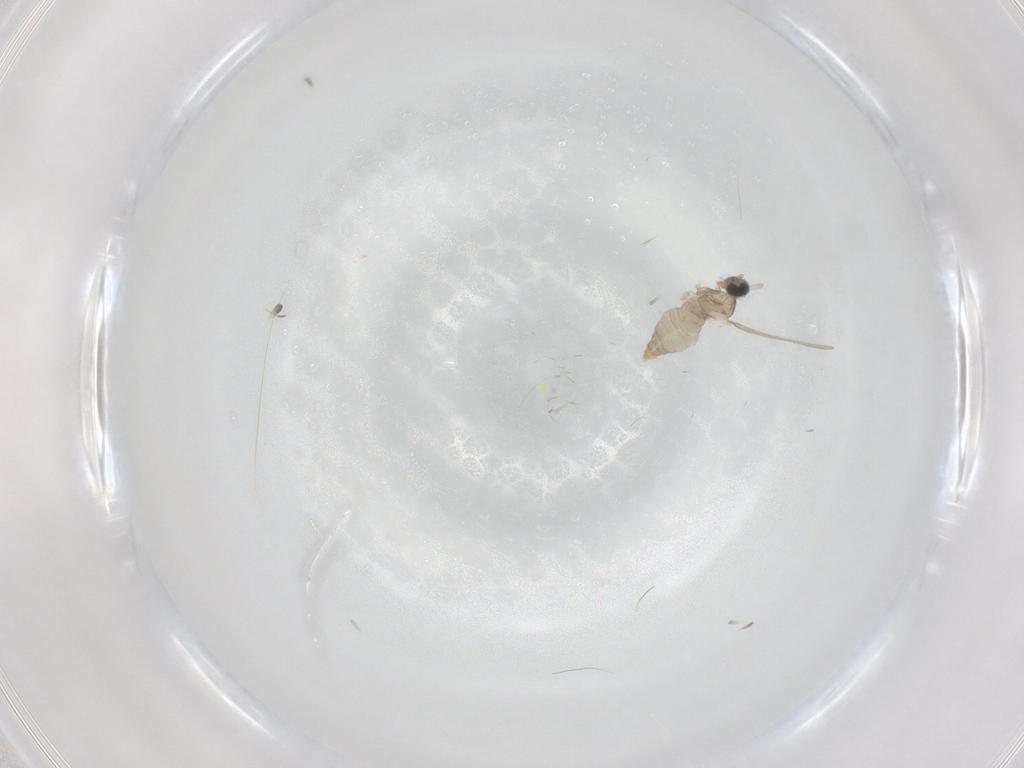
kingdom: Animalia
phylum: Arthropoda
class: Insecta
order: Diptera
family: Cecidomyiidae
